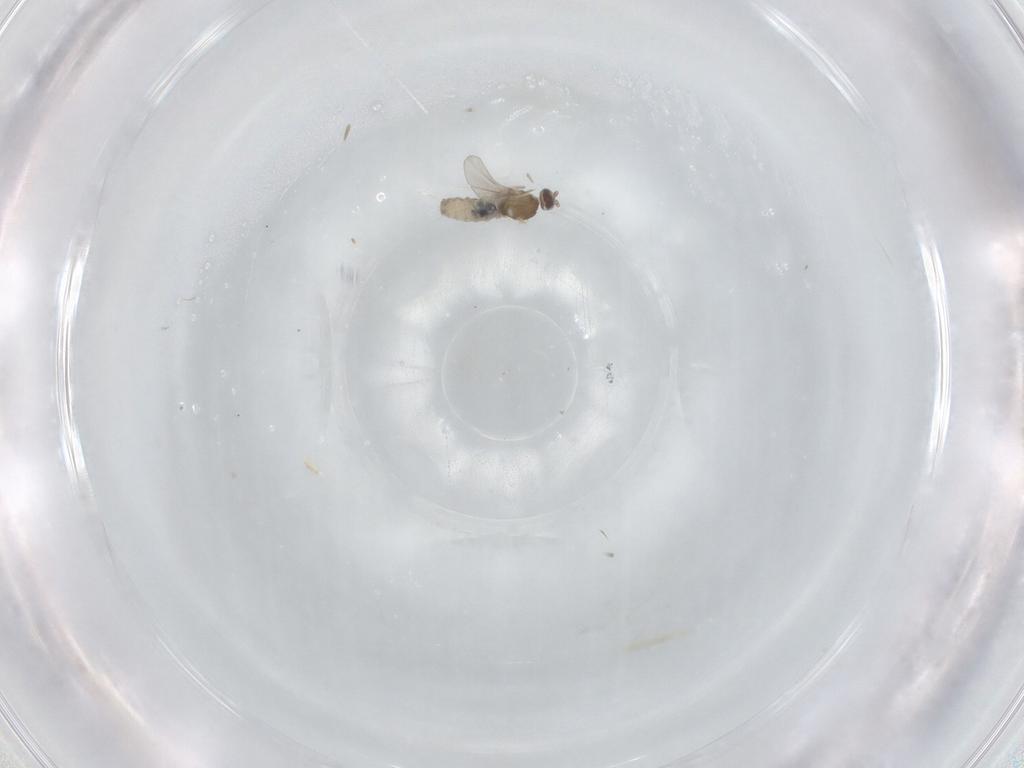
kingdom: Animalia
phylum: Arthropoda
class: Insecta
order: Diptera
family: Cecidomyiidae
